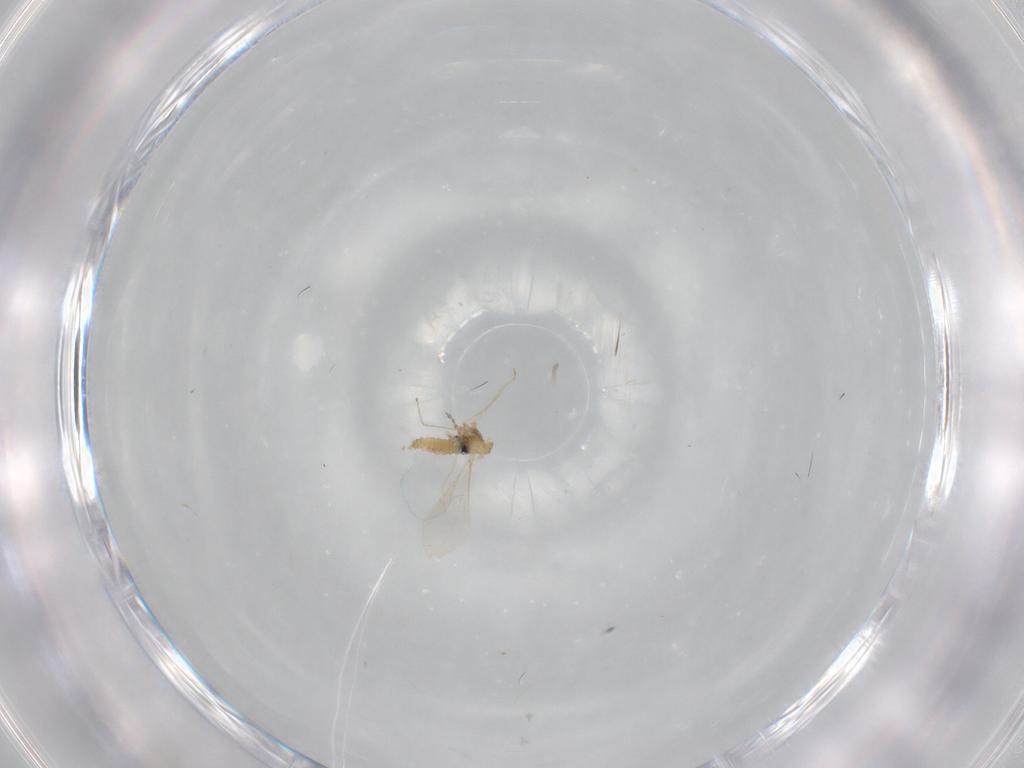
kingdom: Animalia
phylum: Arthropoda
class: Insecta
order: Diptera
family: Cecidomyiidae
